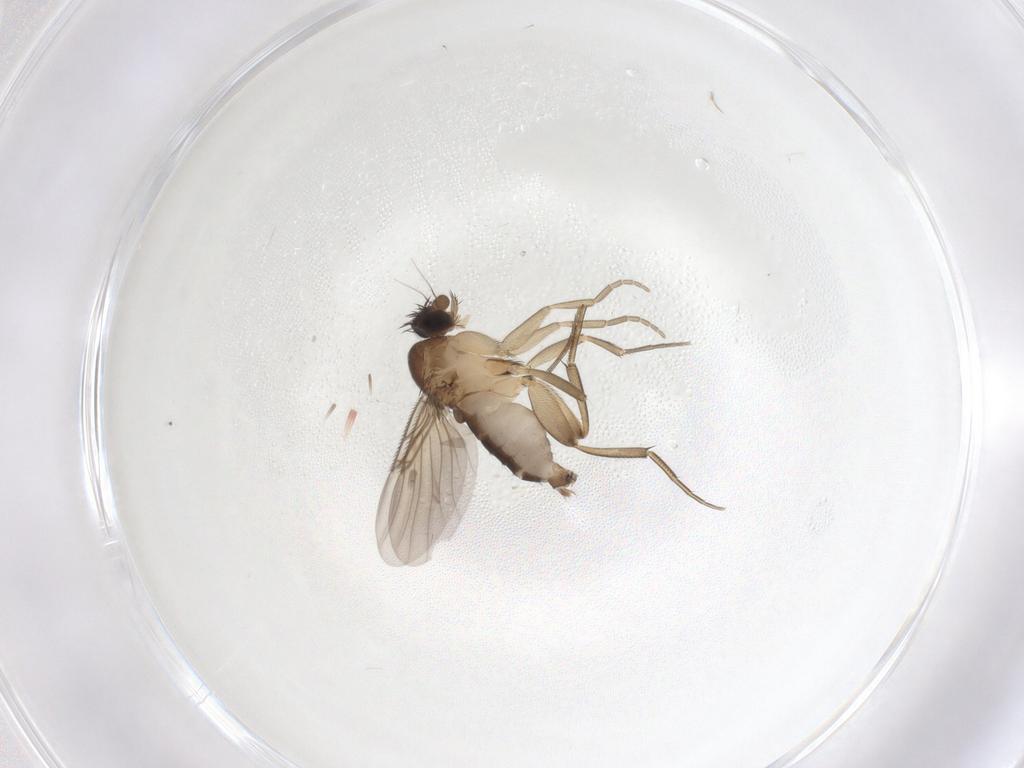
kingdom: Animalia
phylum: Arthropoda
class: Insecta
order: Diptera
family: Phoridae
